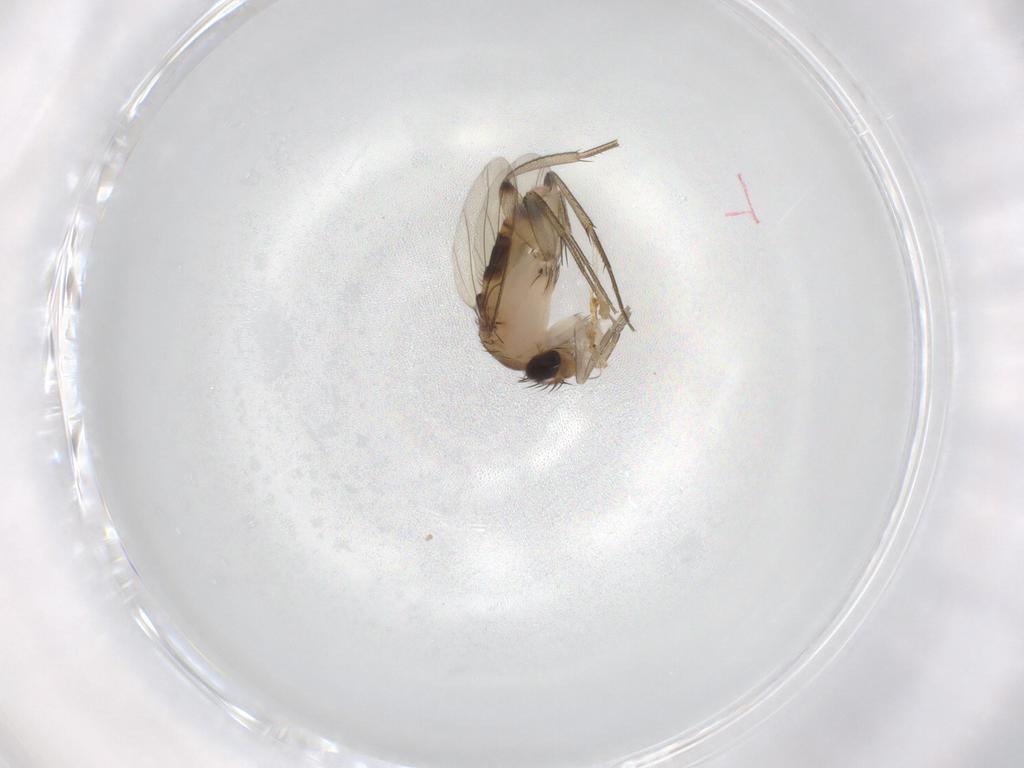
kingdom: Animalia
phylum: Arthropoda
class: Insecta
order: Diptera
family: Phoridae
